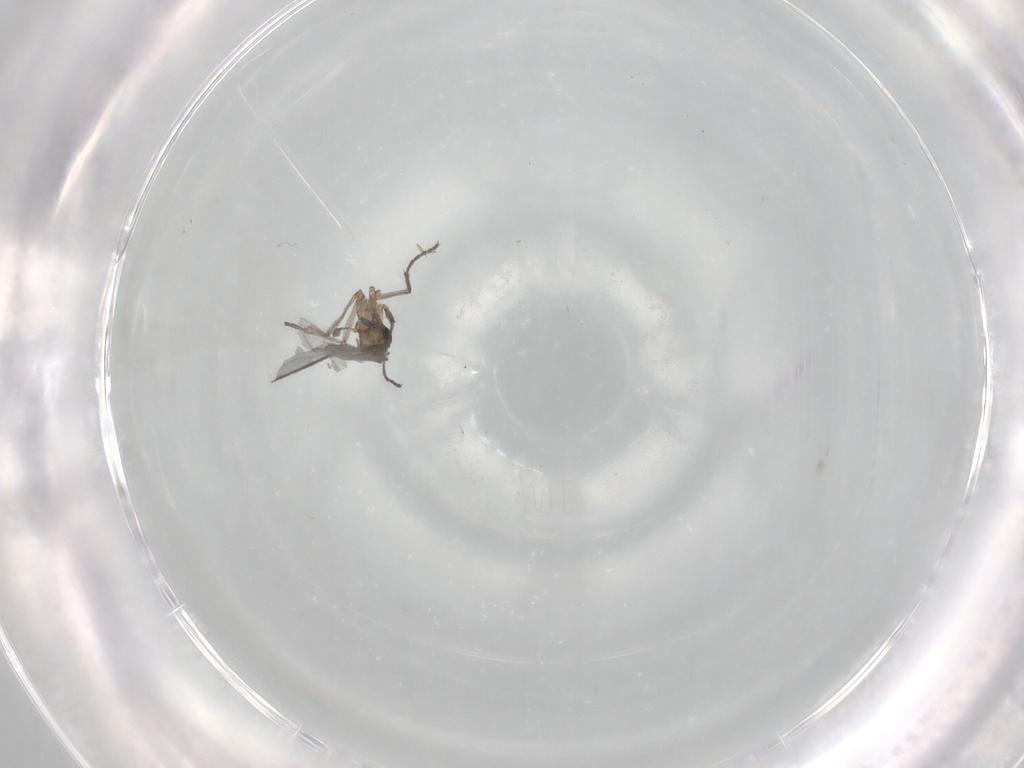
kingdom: Animalia
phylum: Arthropoda
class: Insecta
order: Diptera
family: Sciaridae
